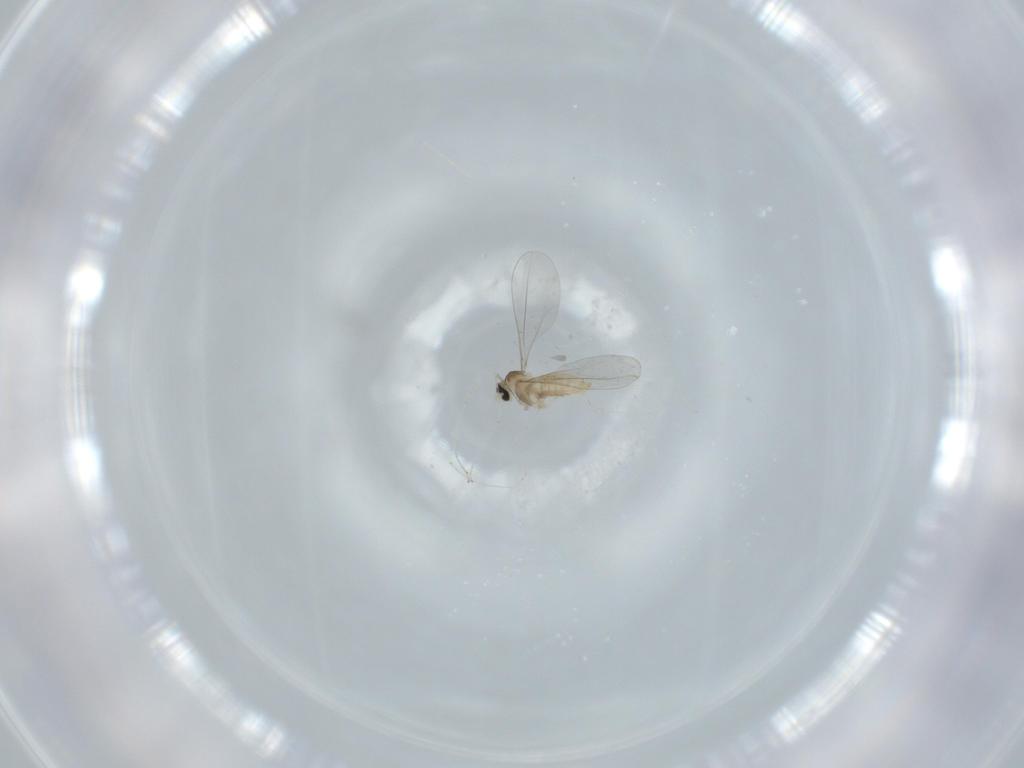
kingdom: Animalia
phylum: Arthropoda
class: Insecta
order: Diptera
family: Cecidomyiidae
